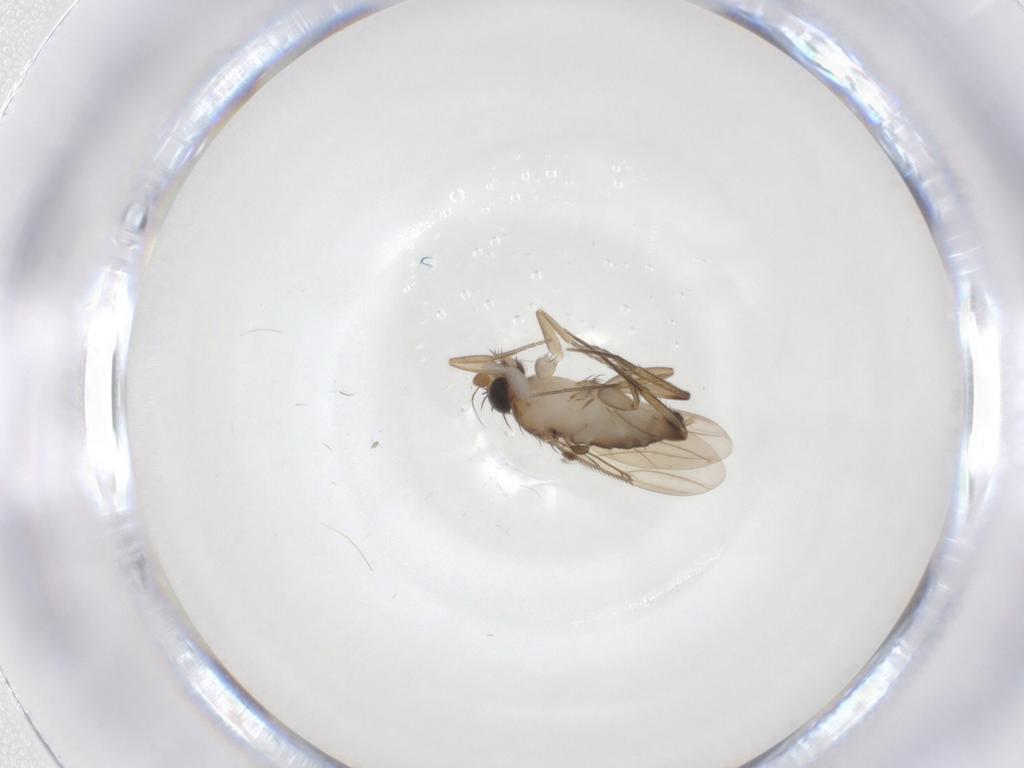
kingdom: Animalia
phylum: Arthropoda
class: Insecta
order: Diptera
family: Phoridae
